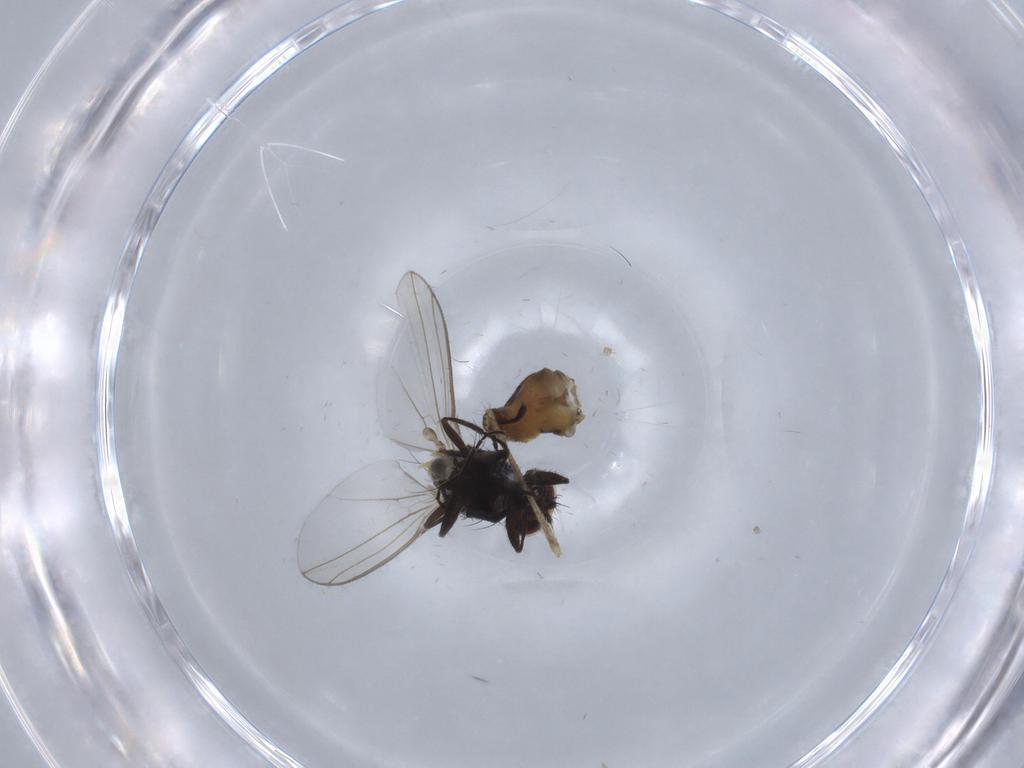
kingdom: Animalia
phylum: Arthropoda
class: Insecta
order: Diptera
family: Carnidae
